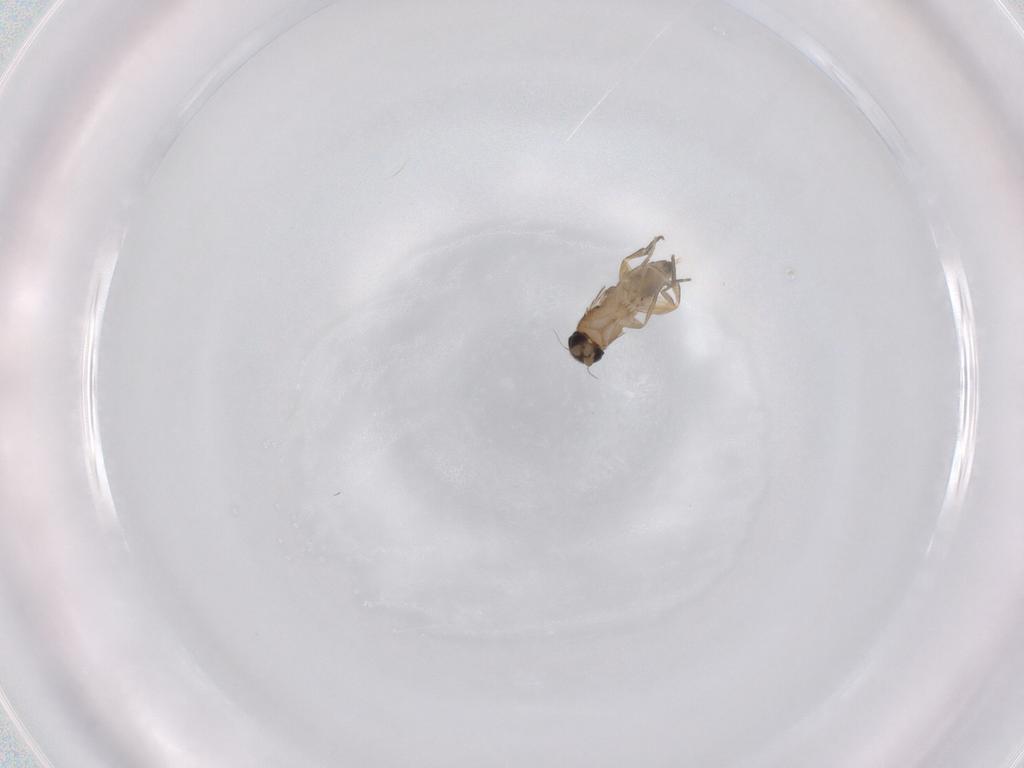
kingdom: Animalia
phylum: Arthropoda
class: Insecta
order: Diptera
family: Phoridae
